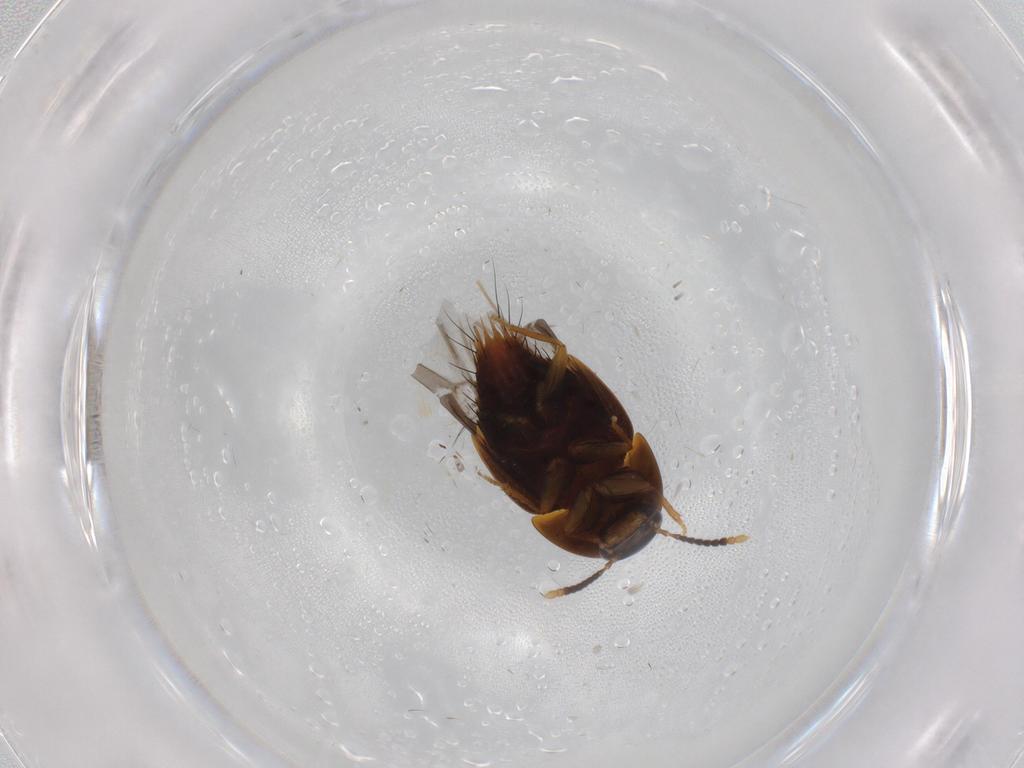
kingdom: Animalia
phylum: Arthropoda
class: Insecta
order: Coleoptera
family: Staphylinidae
